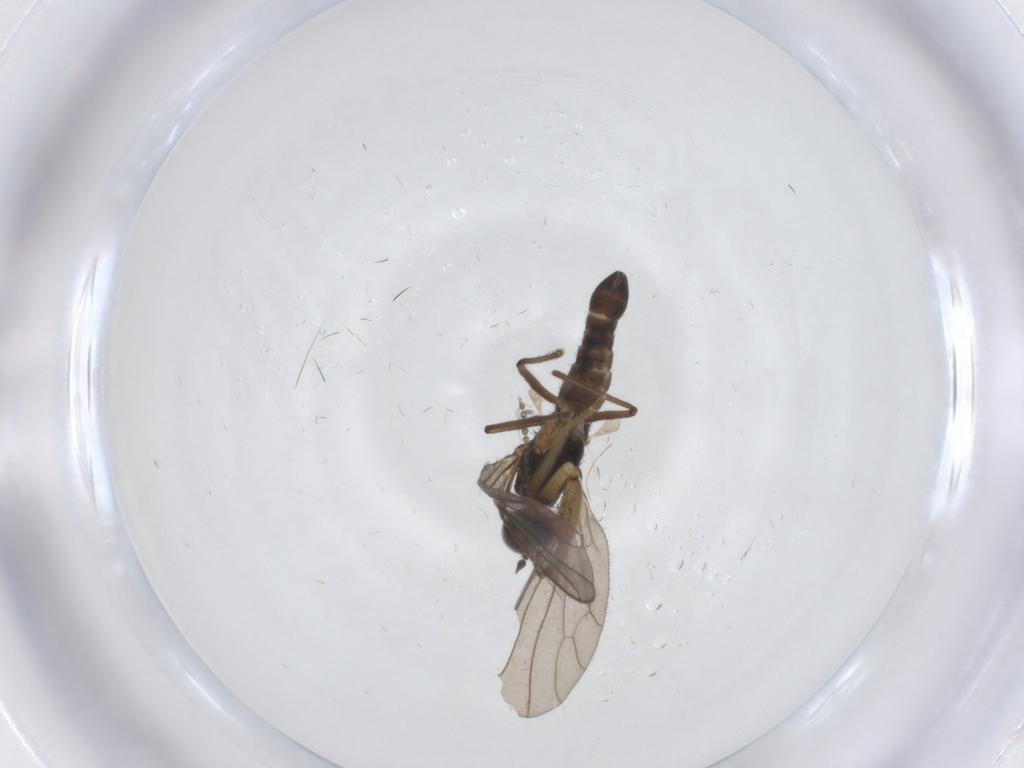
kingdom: Animalia
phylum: Arthropoda
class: Insecta
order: Diptera
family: Empididae
